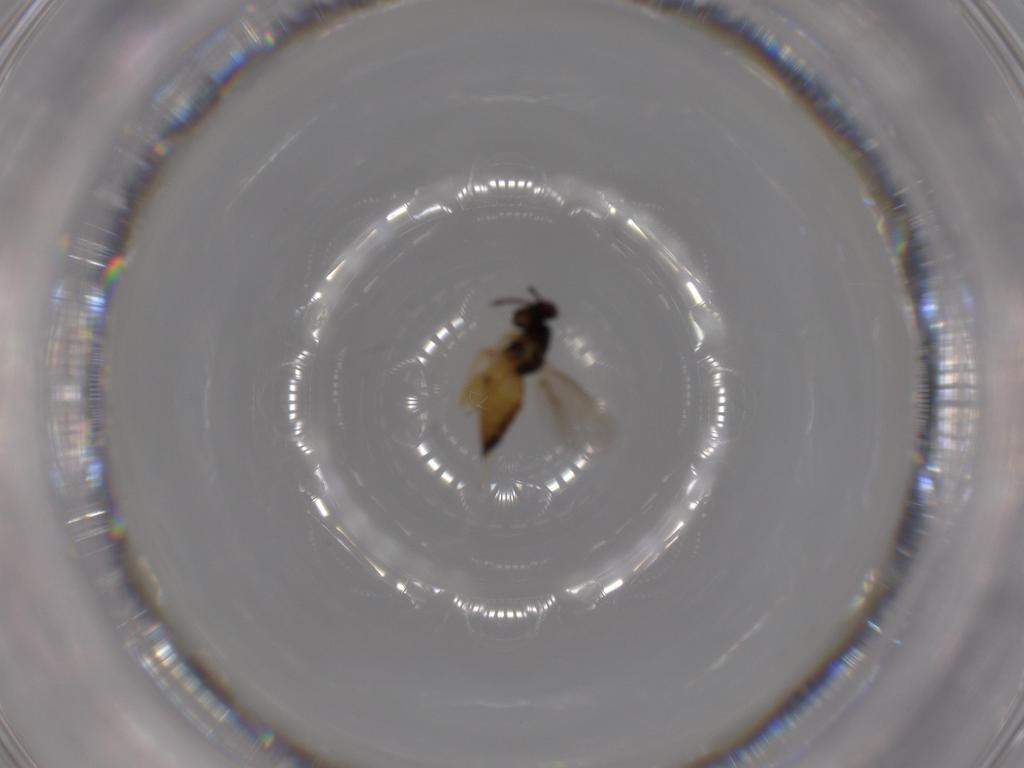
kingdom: Animalia
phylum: Arthropoda
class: Insecta
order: Hymenoptera
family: Eulophidae
